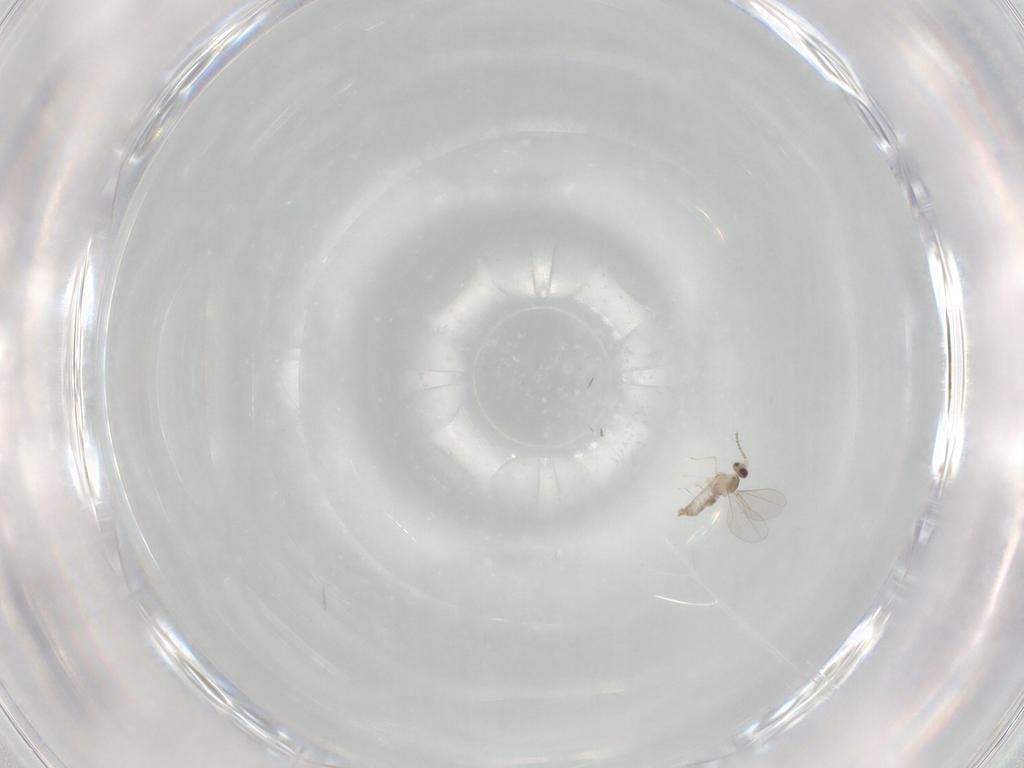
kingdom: Animalia
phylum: Arthropoda
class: Insecta
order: Diptera
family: Cecidomyiidae
